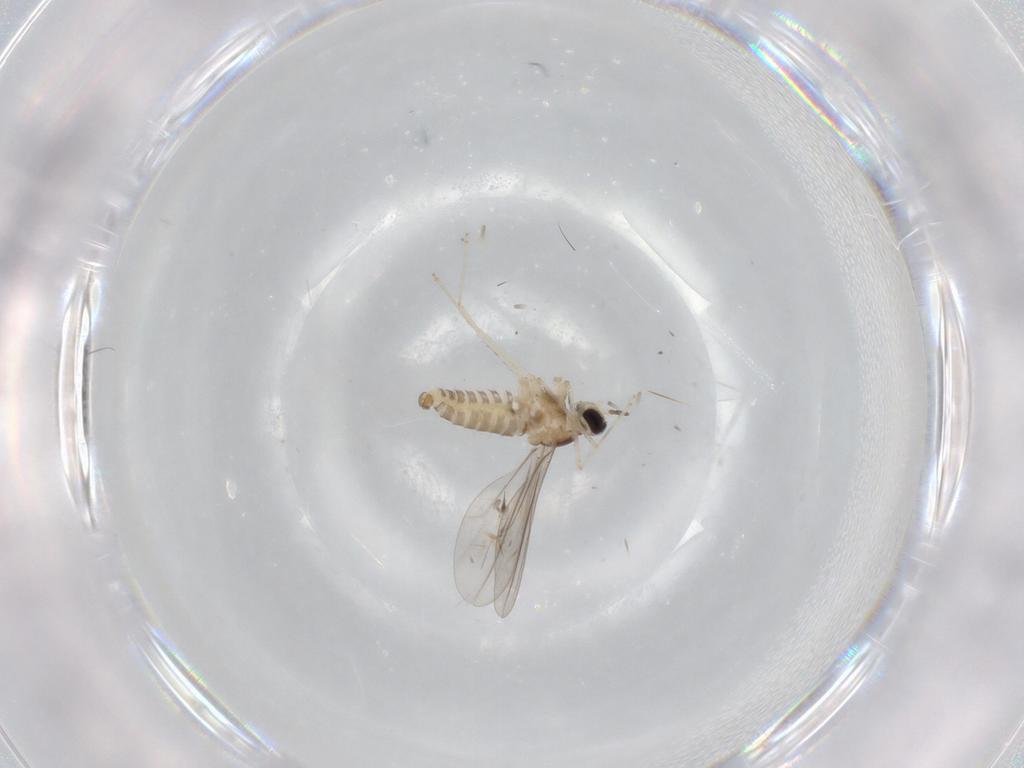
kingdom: Animalia
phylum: Arthropoda
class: Insecta
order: Diptera
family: Cecidomyiidae
